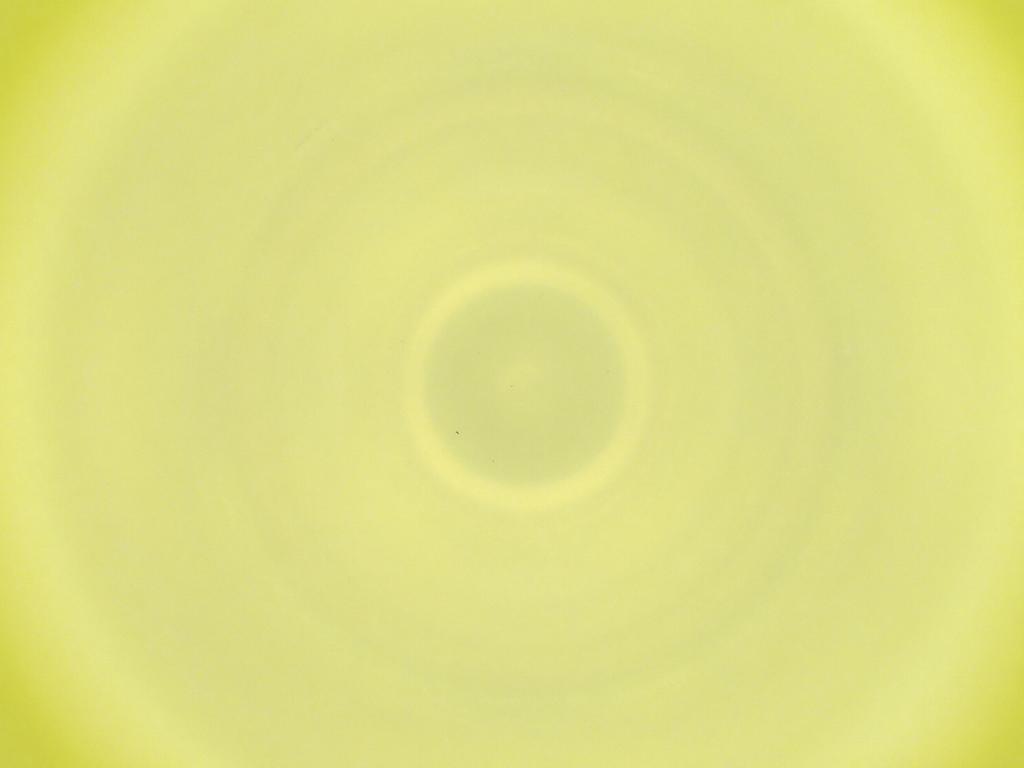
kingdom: Animalia
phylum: Arthropoda
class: Insecta
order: Diptera
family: Cecidomyiidae
